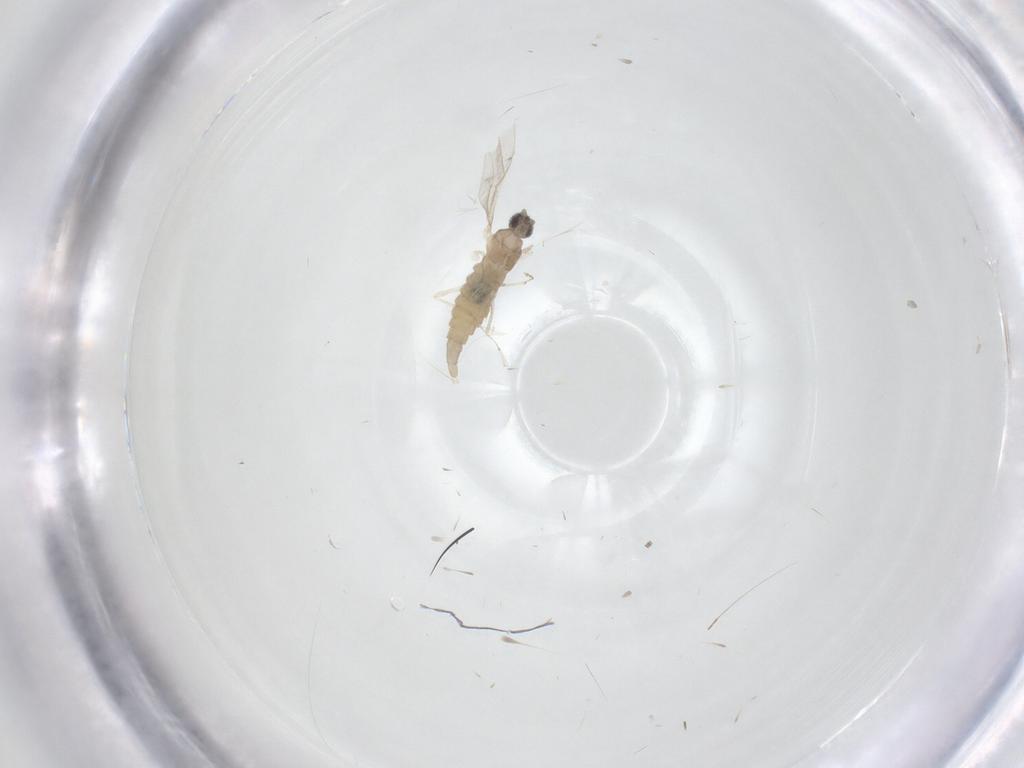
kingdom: Animalia
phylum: Arthropoda
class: Insecta
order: Diptera
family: Cecidomyiidae
